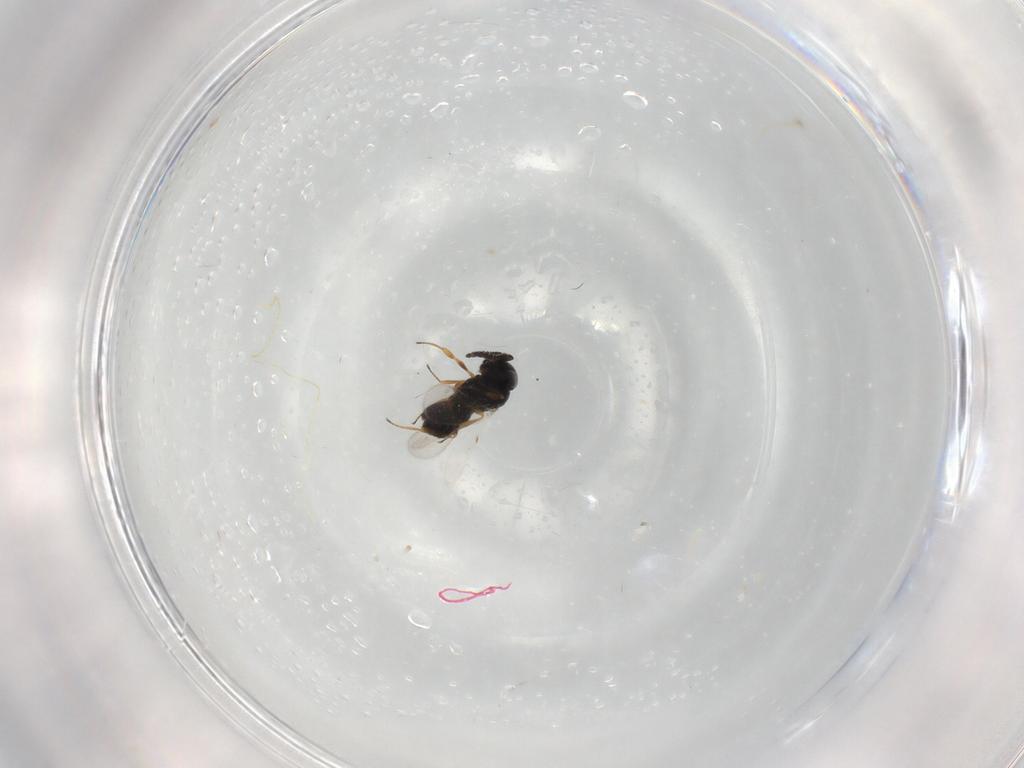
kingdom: Animalia
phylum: Arthropoda
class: Insecta
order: Hymenoptera
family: Scelionidae
